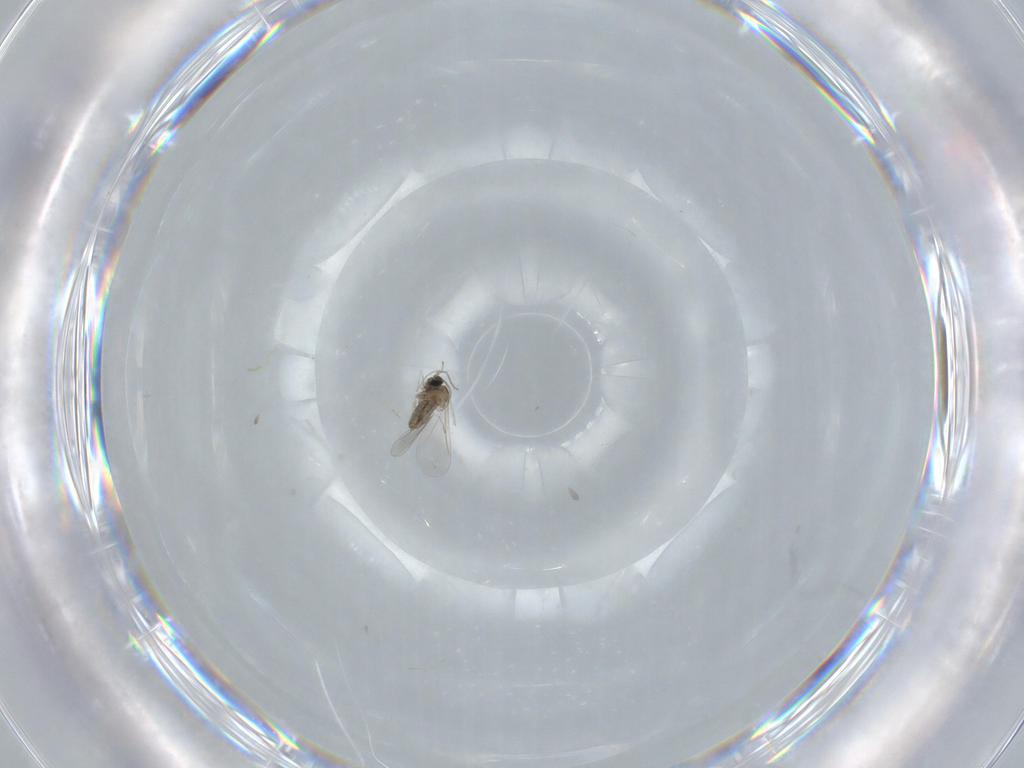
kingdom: Animalia
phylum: Arthropoda
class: Insecta
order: Diptera
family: Cecidomyiidae
